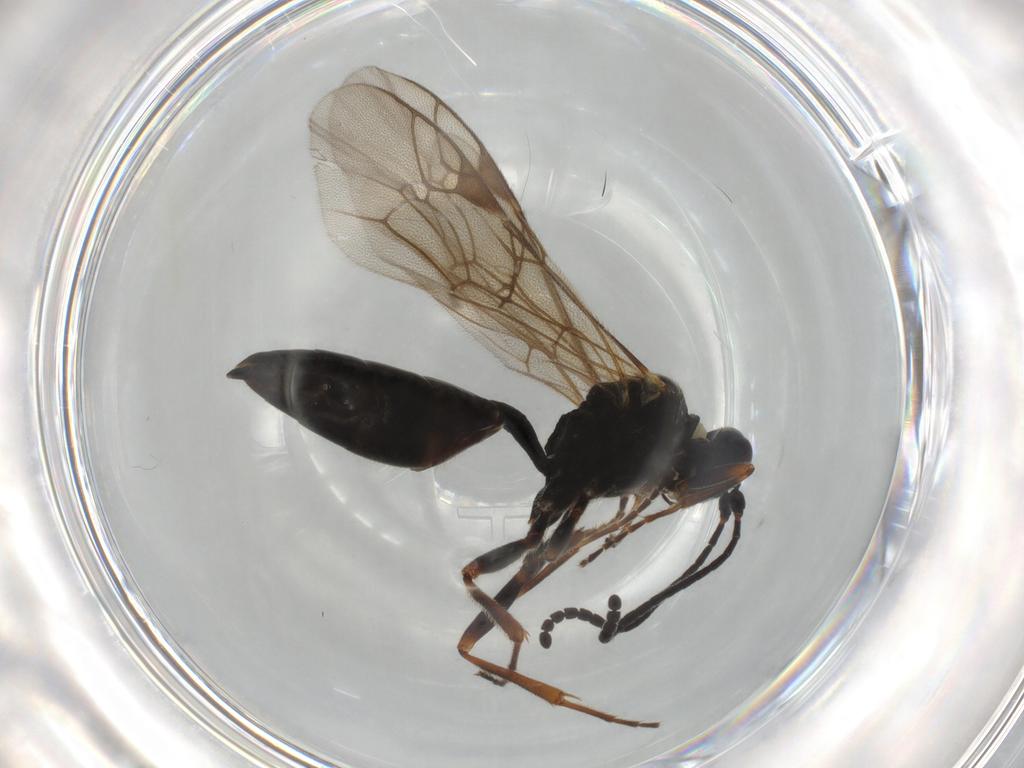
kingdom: Animalia
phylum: Arthropoda
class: Insecta
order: Hymenoptera
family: Ichneumonidae
